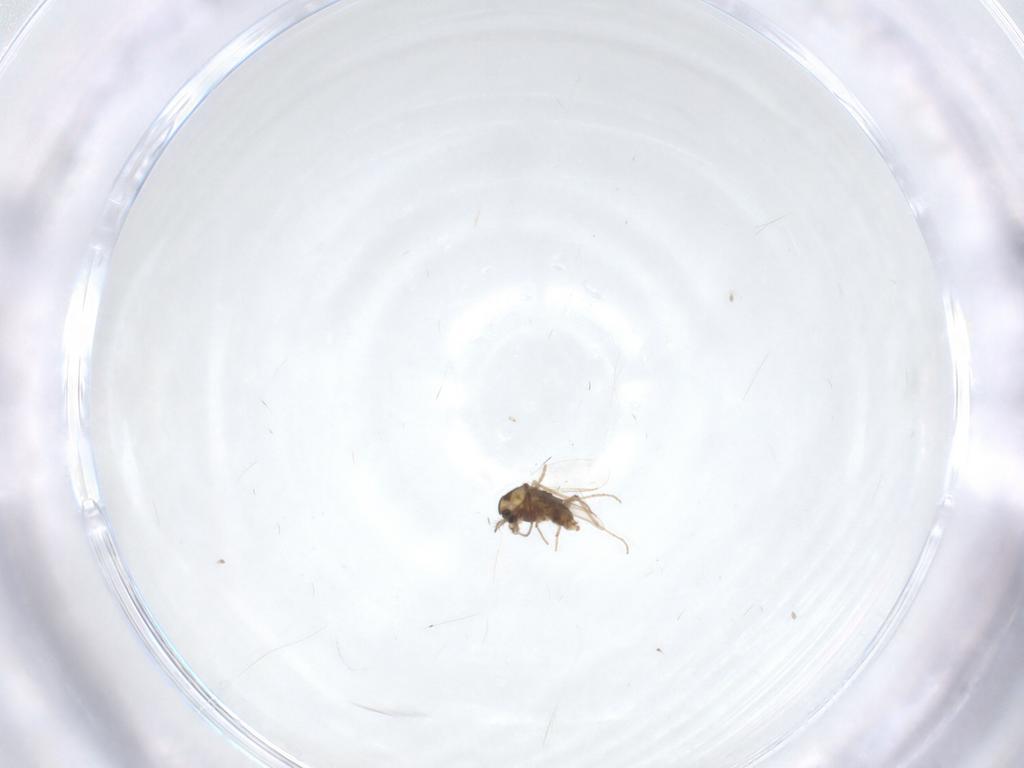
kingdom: Animalia
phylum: Arthropoda
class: Insecta
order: Diptera
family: Chironomidae
